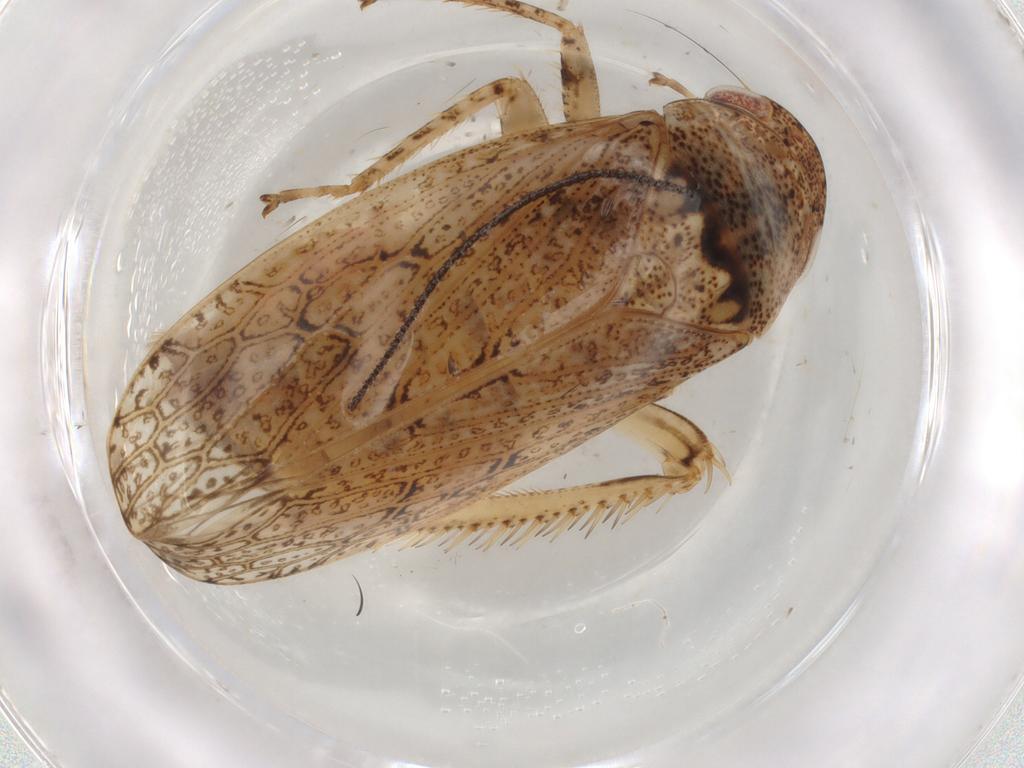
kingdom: Animalia
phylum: Arthropoda
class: Insecta
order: Hemiptera
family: Cicadellidae
